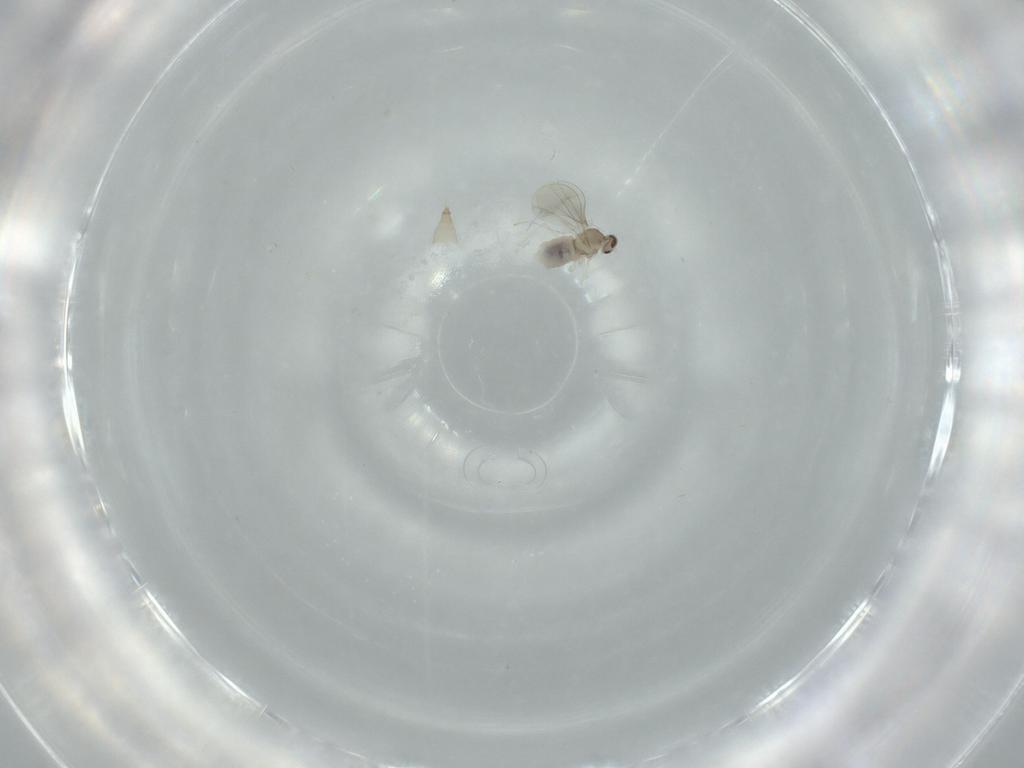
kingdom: Animalia
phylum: Arthropoda
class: Insecta
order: Diptera
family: Cecidomyiidae
